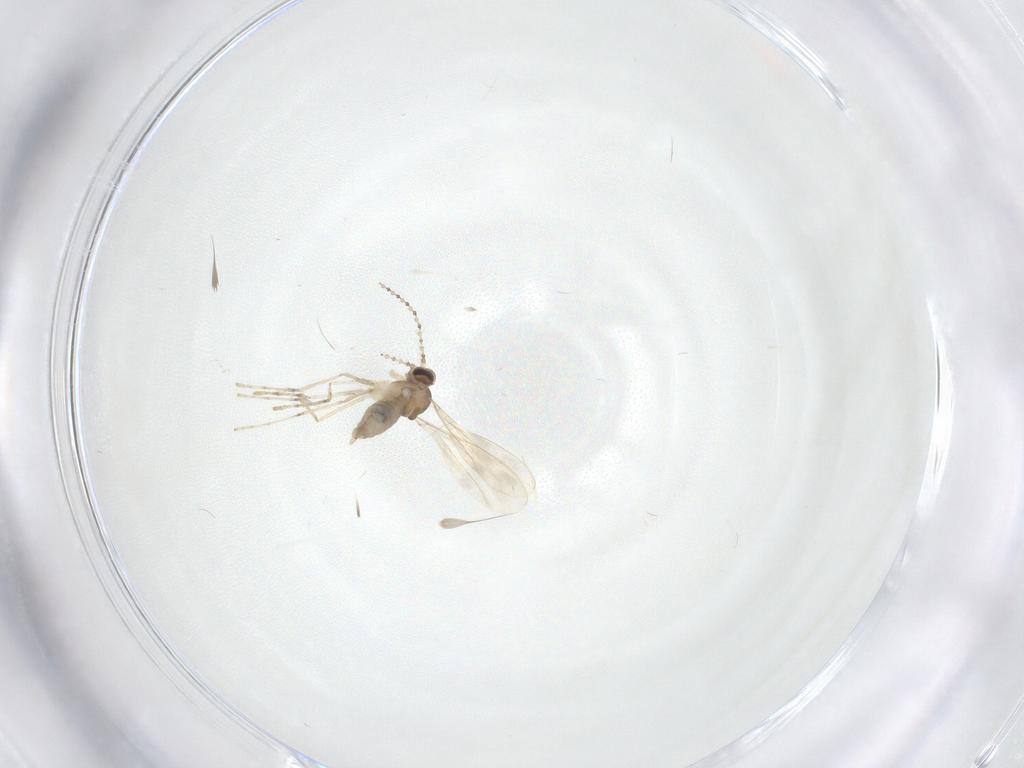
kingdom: Animalia
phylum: Arthropoda
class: Insecta
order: Diptera
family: Cecidomyiidae
